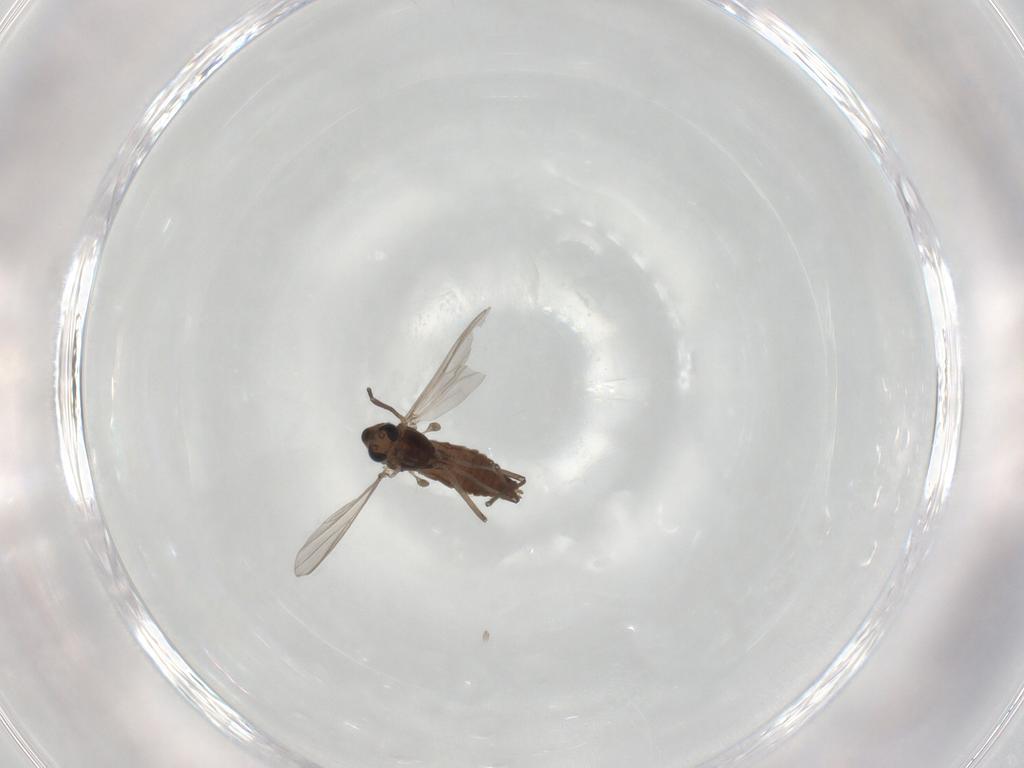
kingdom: Animalia
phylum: Arthropoda
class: Insecta
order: Diptera
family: Chironomidae
